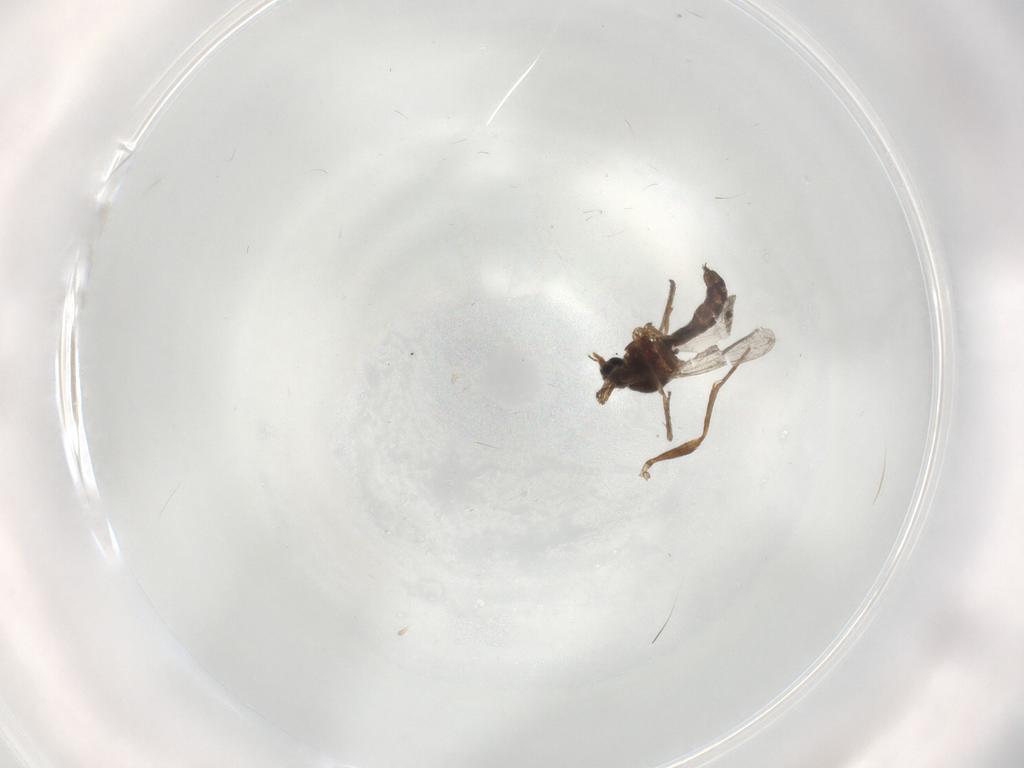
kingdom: Animalia
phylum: Arthropoda
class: Insecta
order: Diptera
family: Ceratopogonidae
